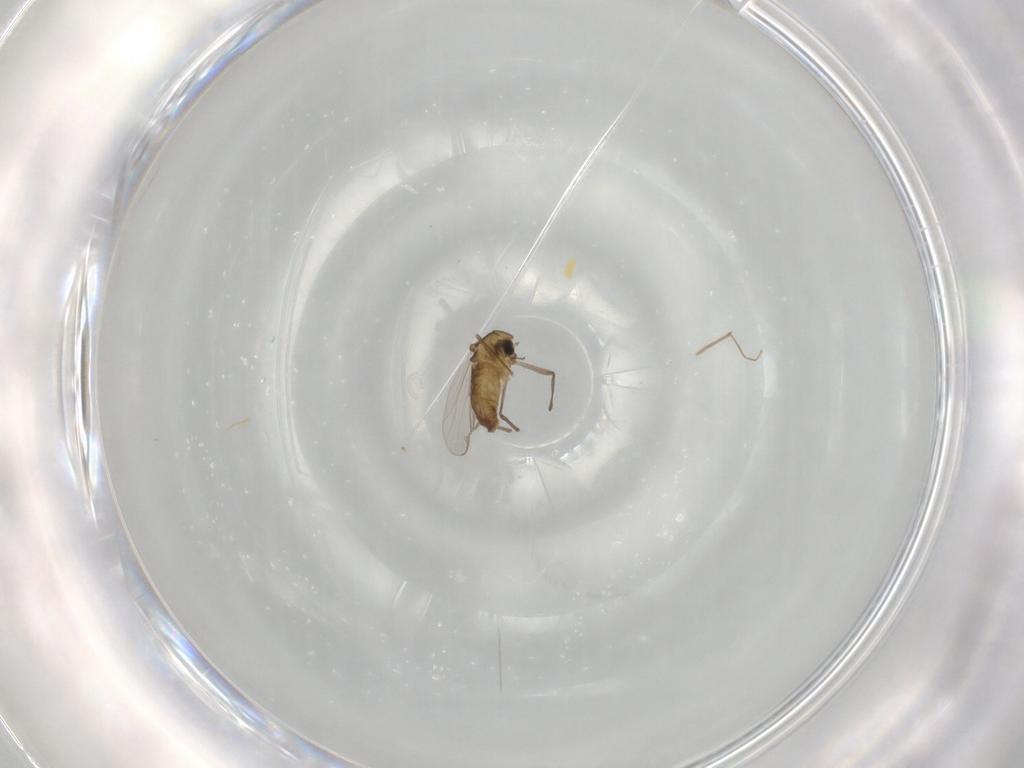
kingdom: Animalia
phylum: Arthropoda
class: Insecta
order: Diptera
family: Chironomidae
